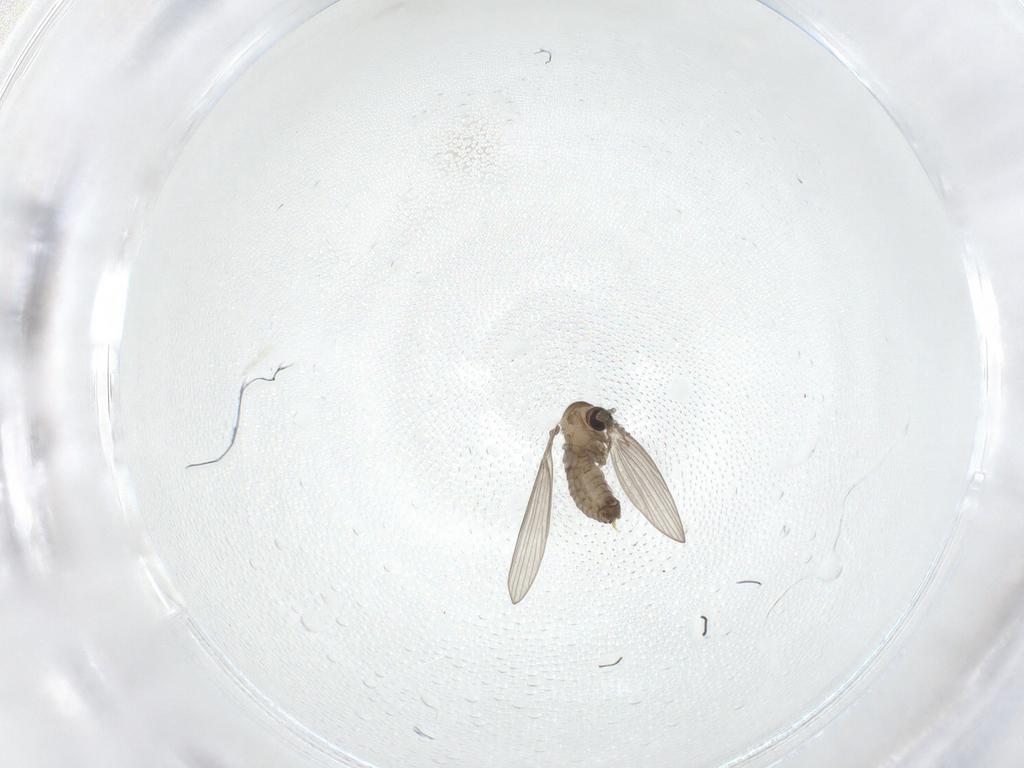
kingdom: Animalia
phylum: Arthropoda
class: Insecta
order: Diptera
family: Psychodidae
